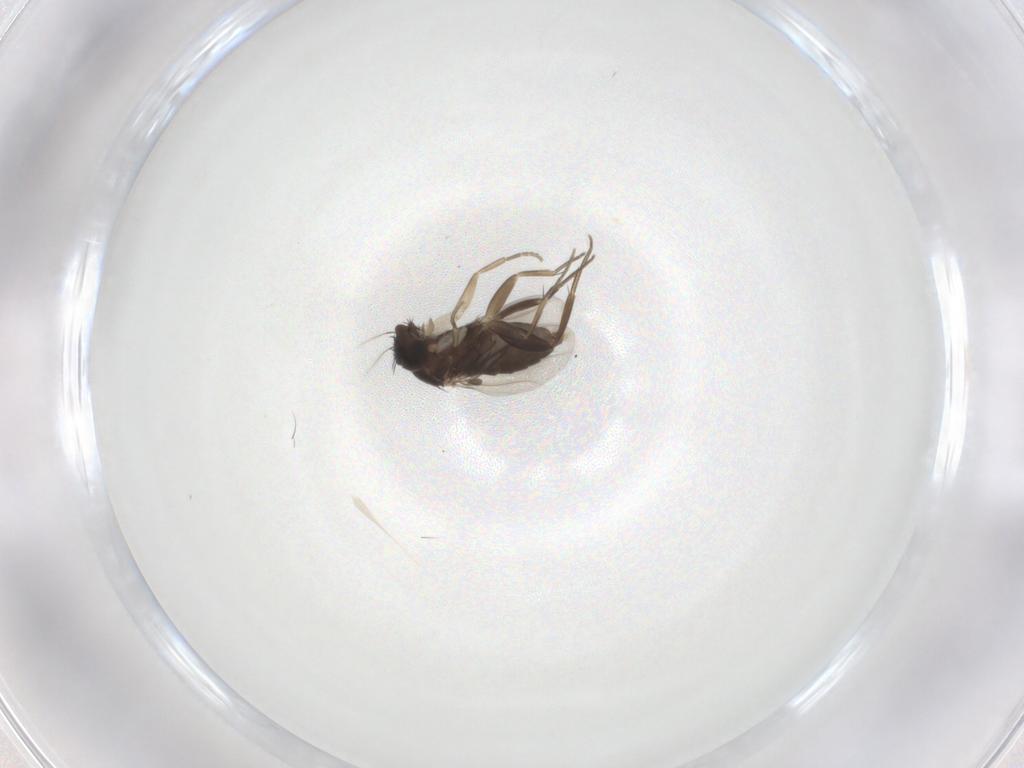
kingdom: Animalia
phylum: Arthropoda
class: Insecta
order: Diptera
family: Phoridae
